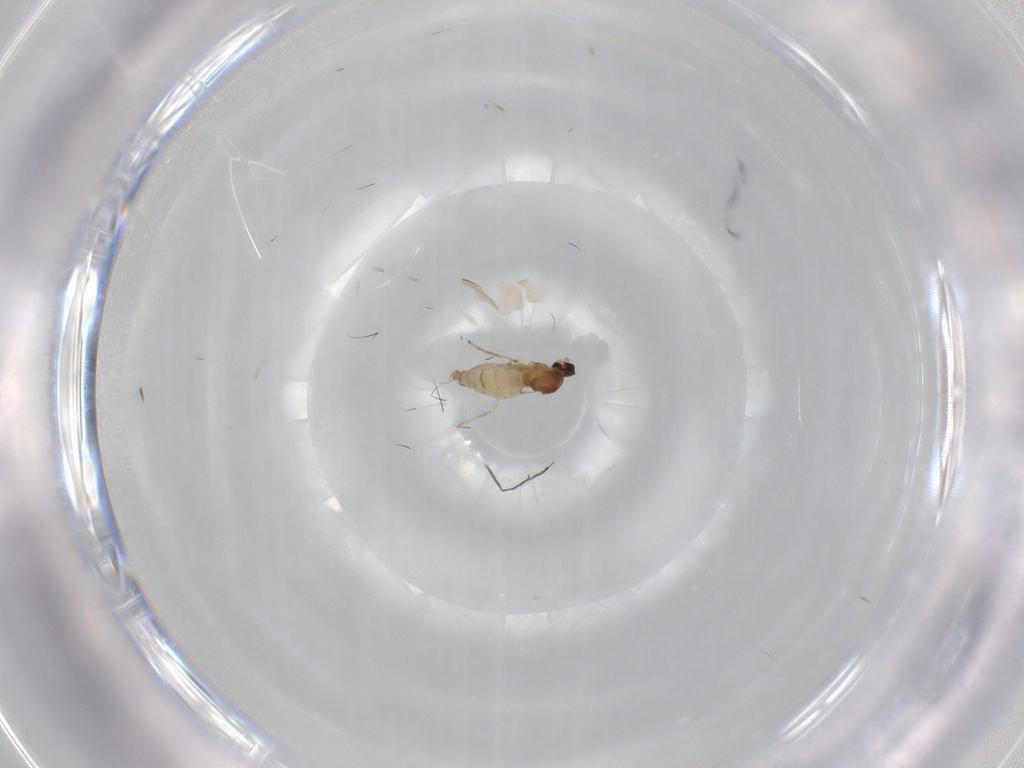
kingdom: Animalia
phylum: Arthropoda
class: Insecta
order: Diptera
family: Cecidomyiidae
